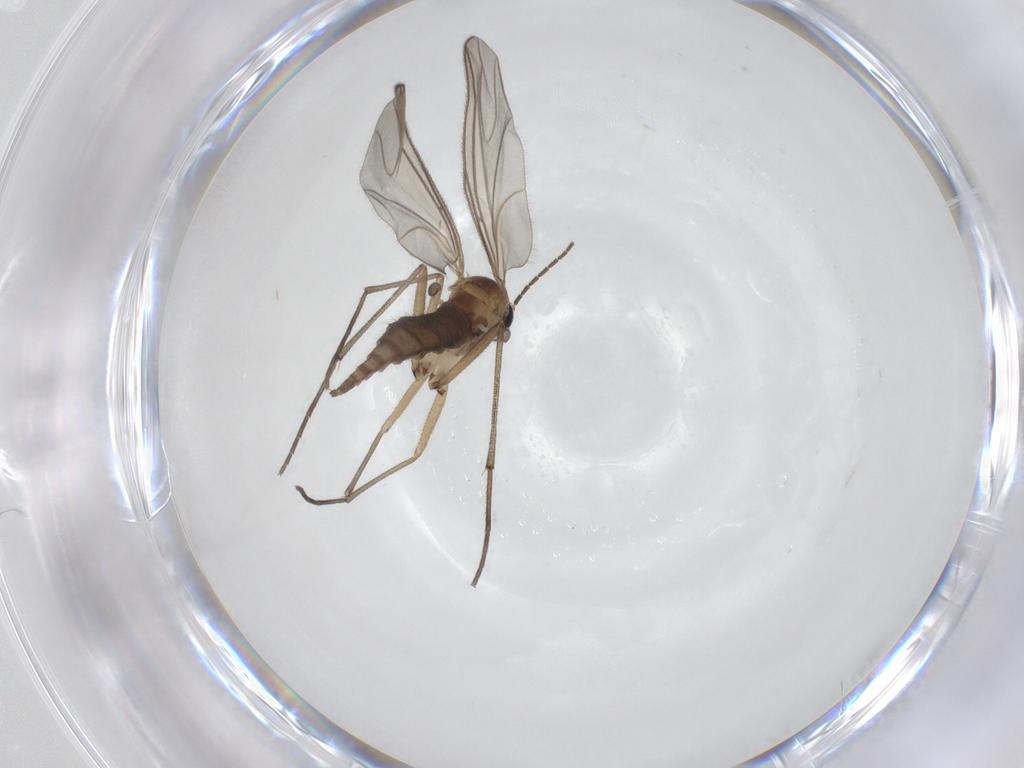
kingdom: Animalia
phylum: Arthropoda
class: Insecta
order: Diptera
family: Sciaridae
